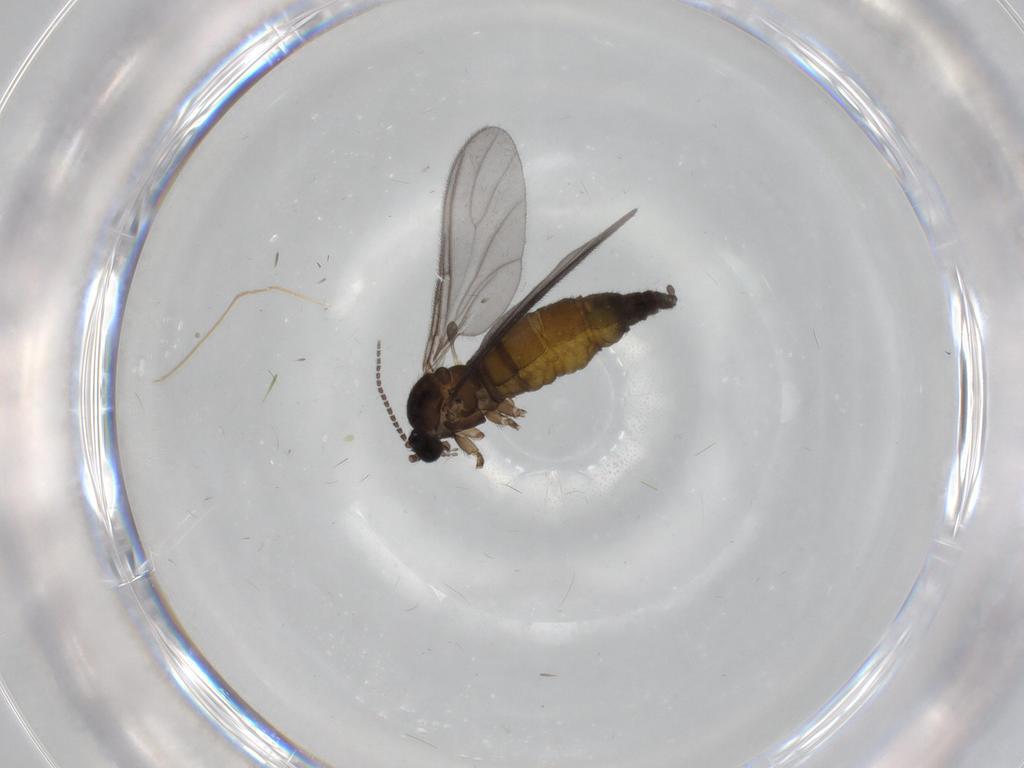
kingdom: Animalia
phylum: Arthropoda
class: Insecta
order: Diptera
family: Sciaridae
